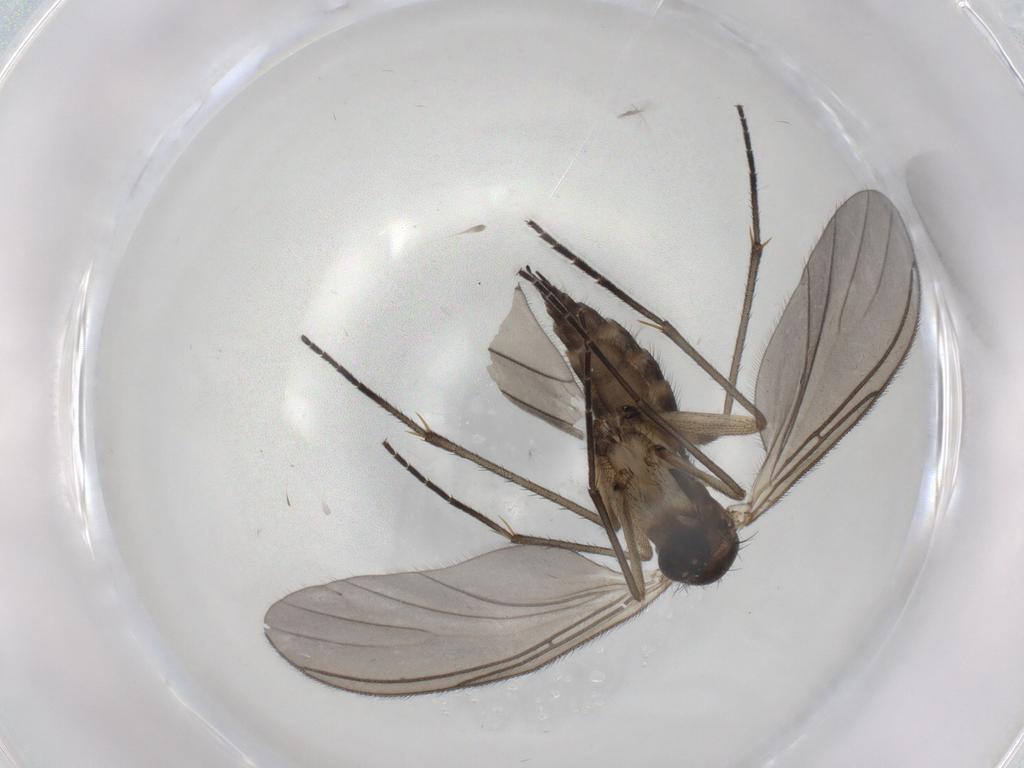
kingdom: Animalia
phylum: Arthropoda
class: Insecta
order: Diptera
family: Sciaridae
